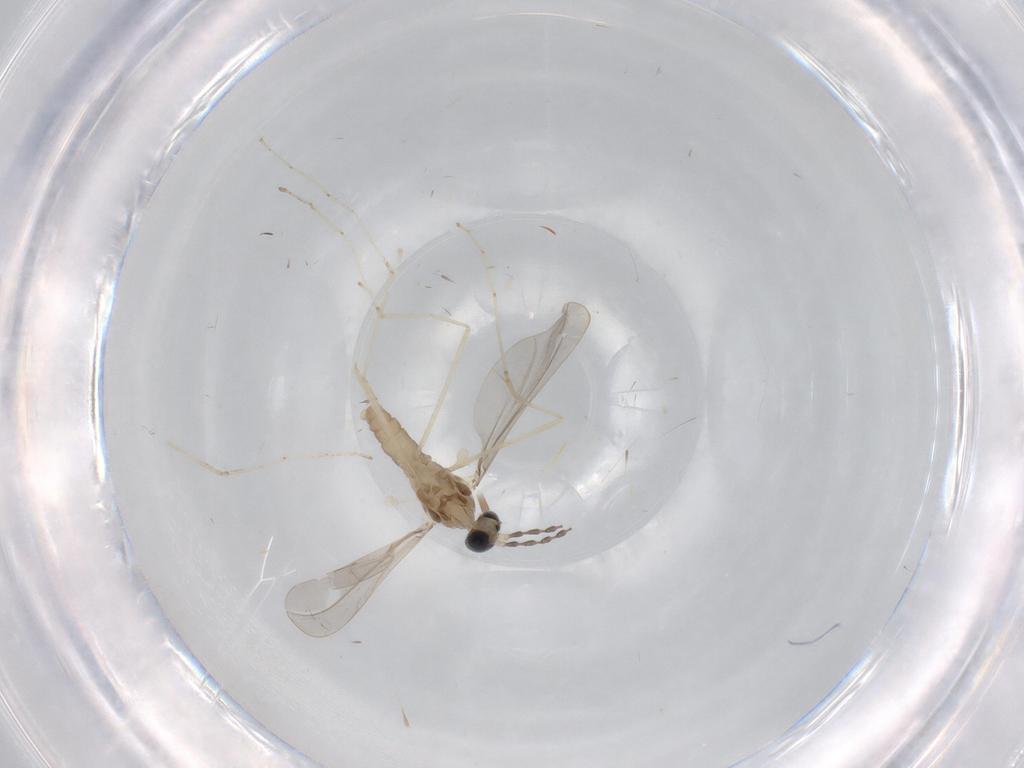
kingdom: Animalia
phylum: Arthropoda
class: Insecta
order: Diptera
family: Cecidomyiidae
